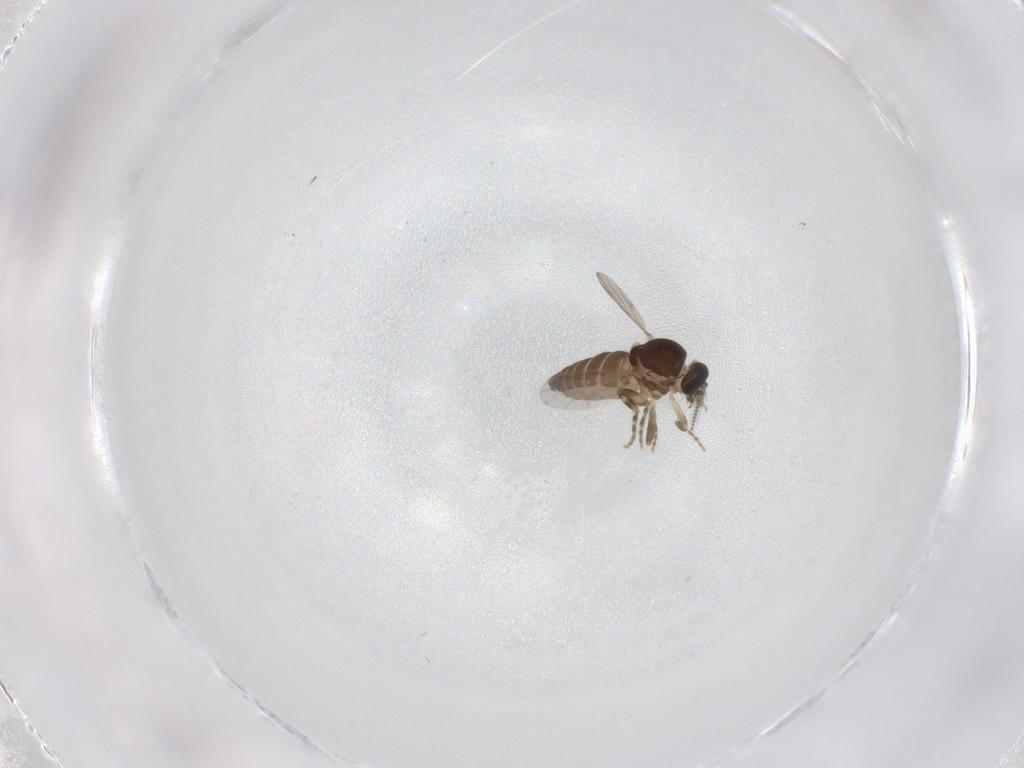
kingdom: Animalia
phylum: Arthropoda
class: Insecta
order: Diptera
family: Ceratopogonidae
